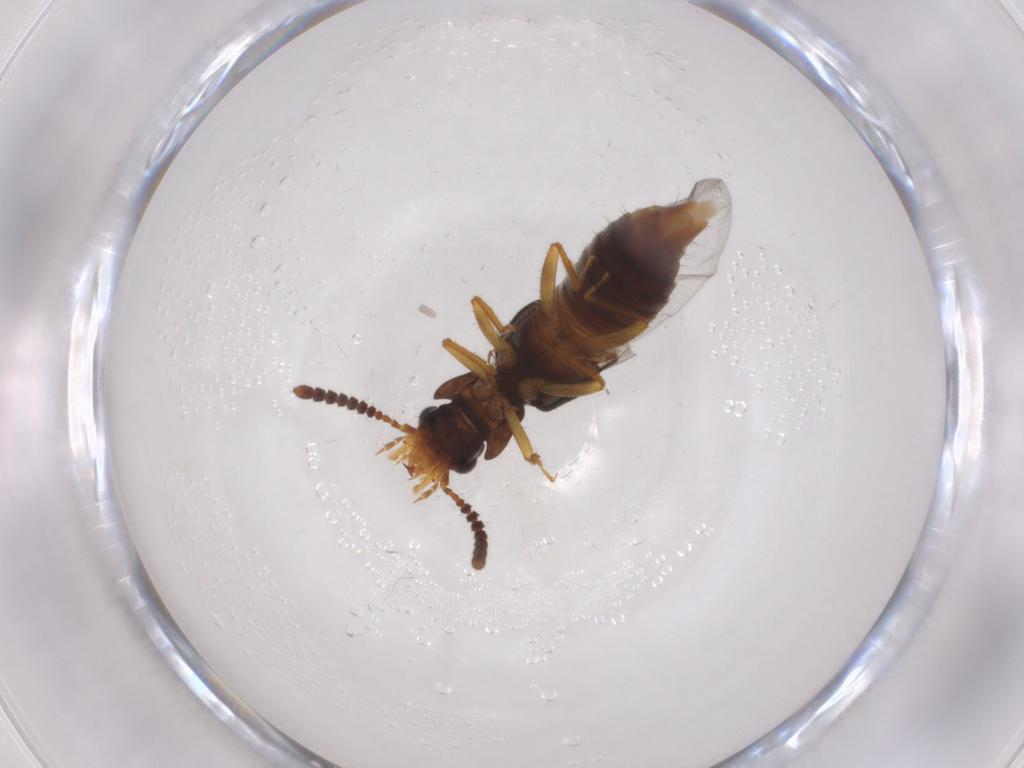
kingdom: Animalia
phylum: Arthropoda
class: Insecta
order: Coleoptera
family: Staphylinidae
